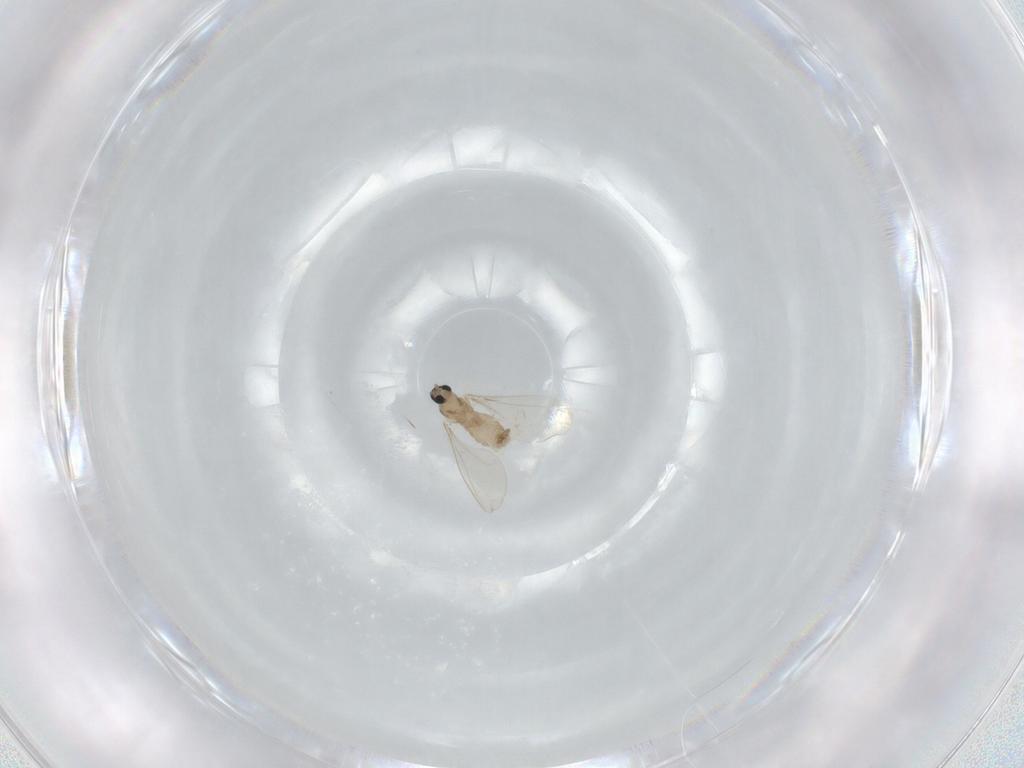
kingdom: Animalia
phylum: Arthropoda
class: Insecta
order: Diptera
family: Cecidomyiidae
